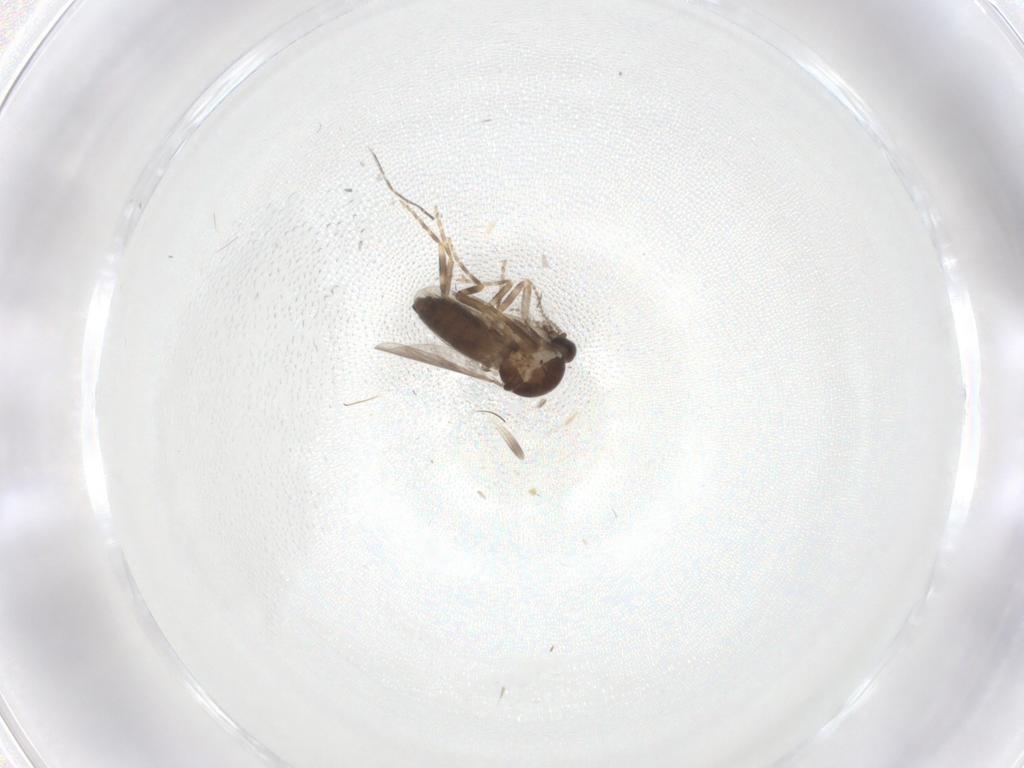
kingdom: Animalia
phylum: Arthropoda
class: Insecta
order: Diptera
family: Ceratopogonidae
